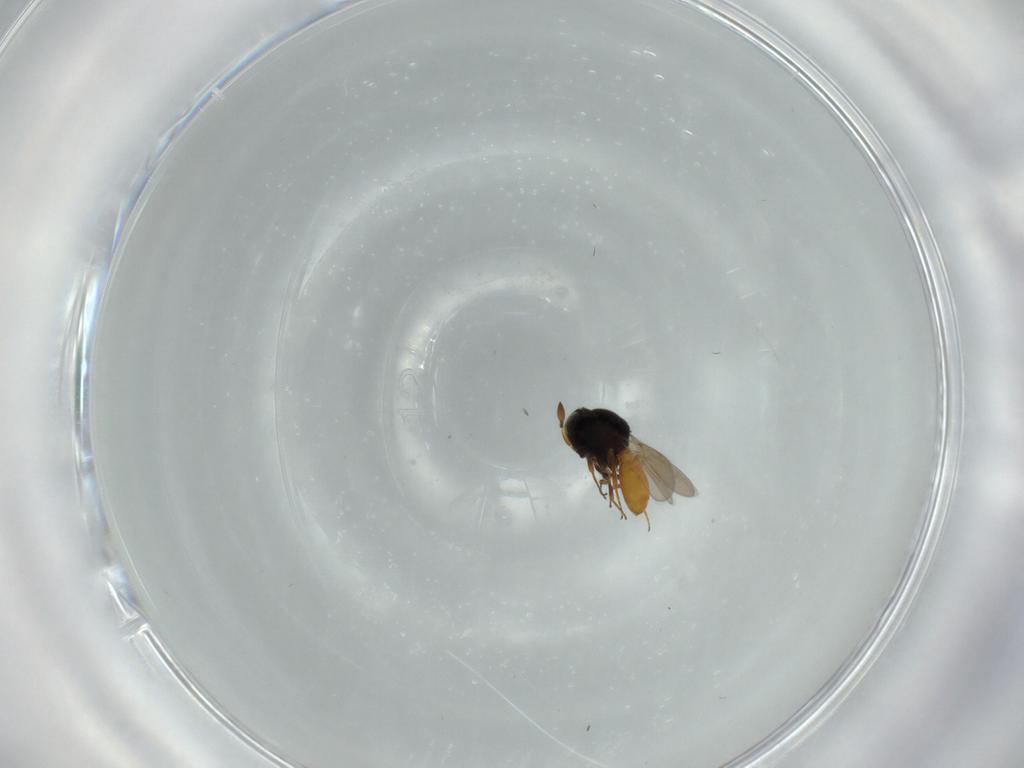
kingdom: Animalia
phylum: Arthropoda
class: Insecta
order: Hymenoptera
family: Scelionidae
